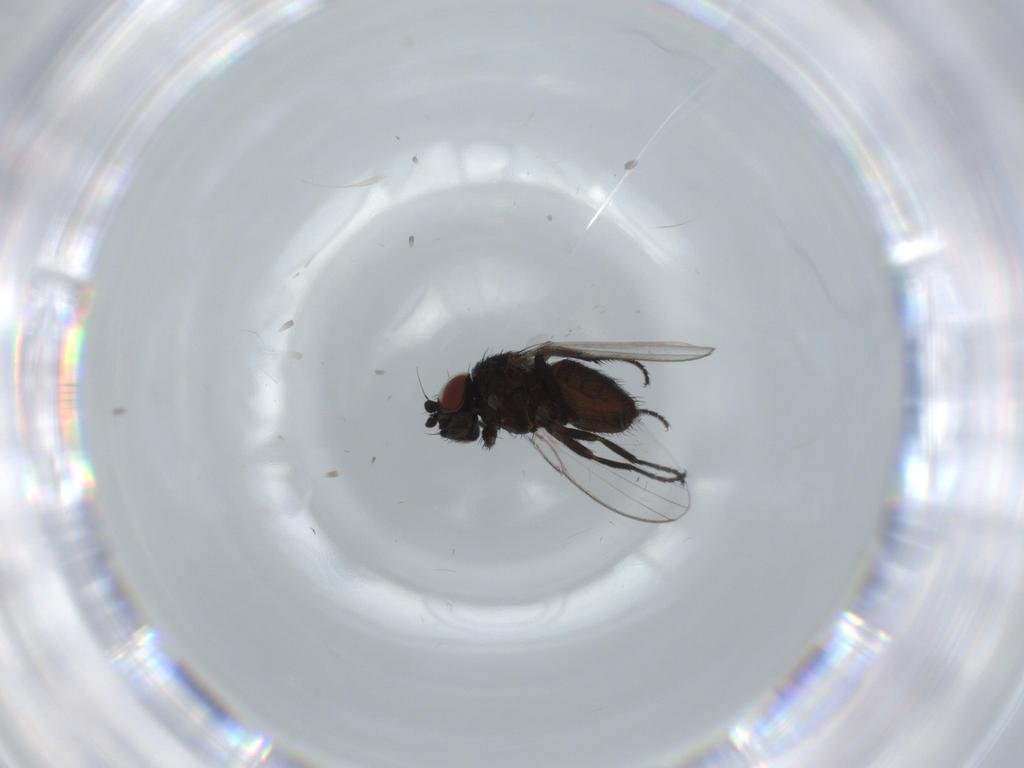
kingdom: Animalia
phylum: Arthropoda
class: Insecta
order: Diptera
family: Milichiidae
